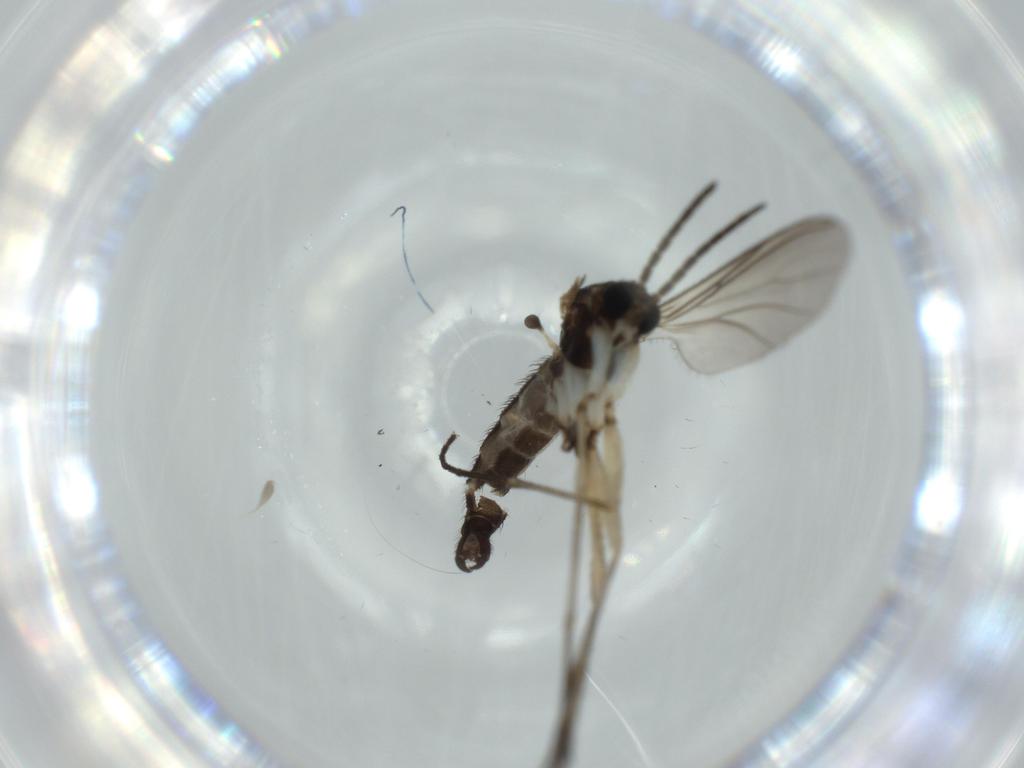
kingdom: Animalia
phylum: Arthropoda
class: Insecta
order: Diptera
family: Sciaridae
